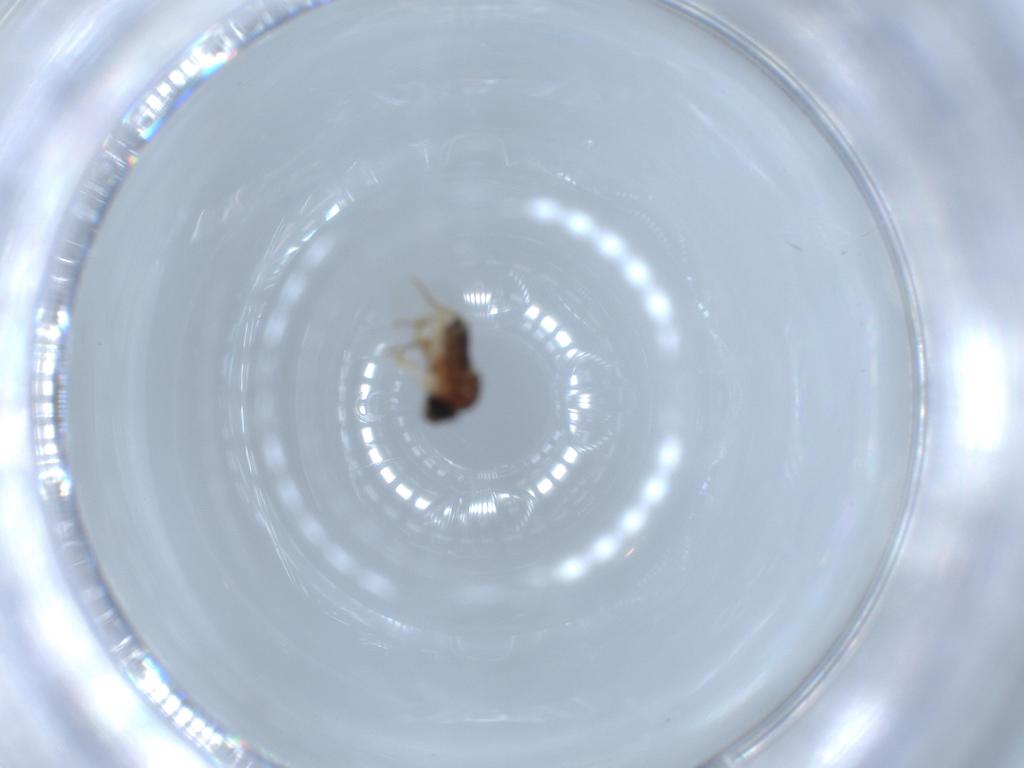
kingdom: Animalia
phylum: Arthropoda
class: Insecta
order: Diptera
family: Phoridae
